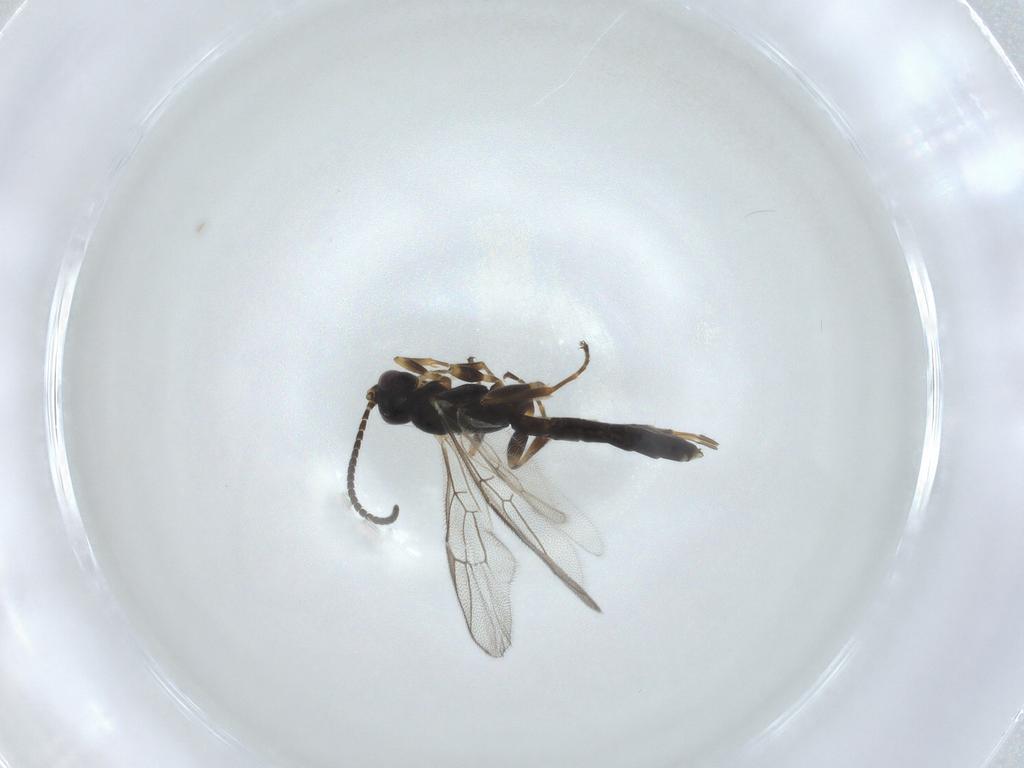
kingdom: Animalia
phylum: Arthropoda
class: Insecta
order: Hymenoptera
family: Ichneumonidae
